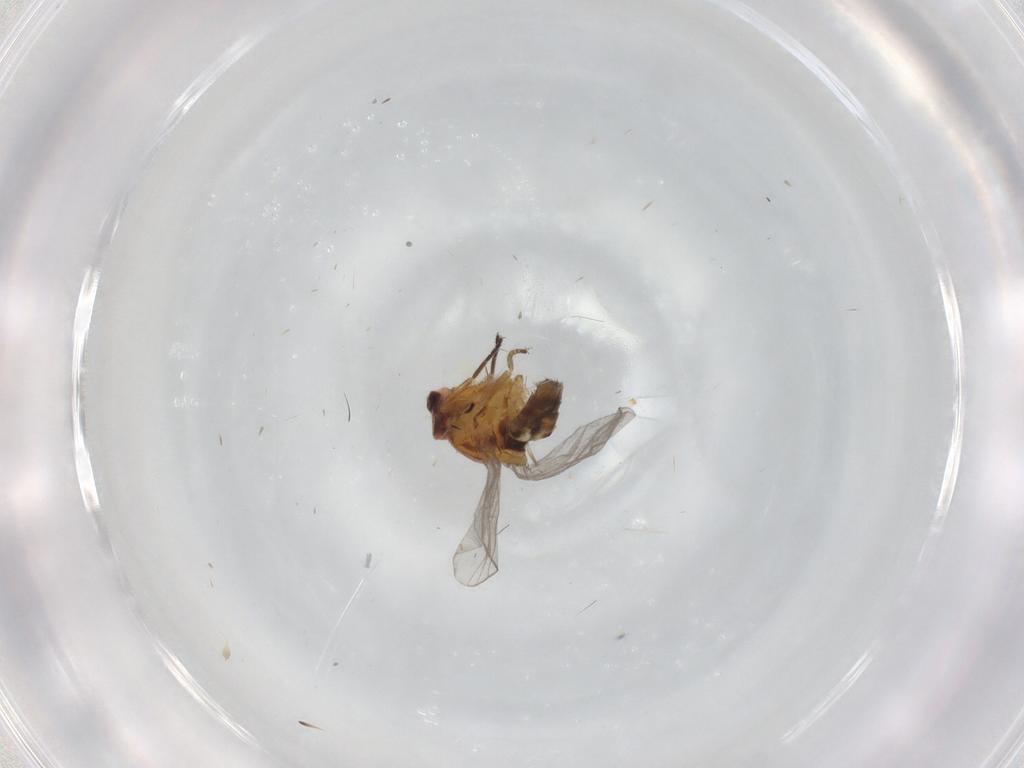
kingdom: Animalia
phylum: Arthropoda
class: Insecta
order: Diptera
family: Chloropidae
